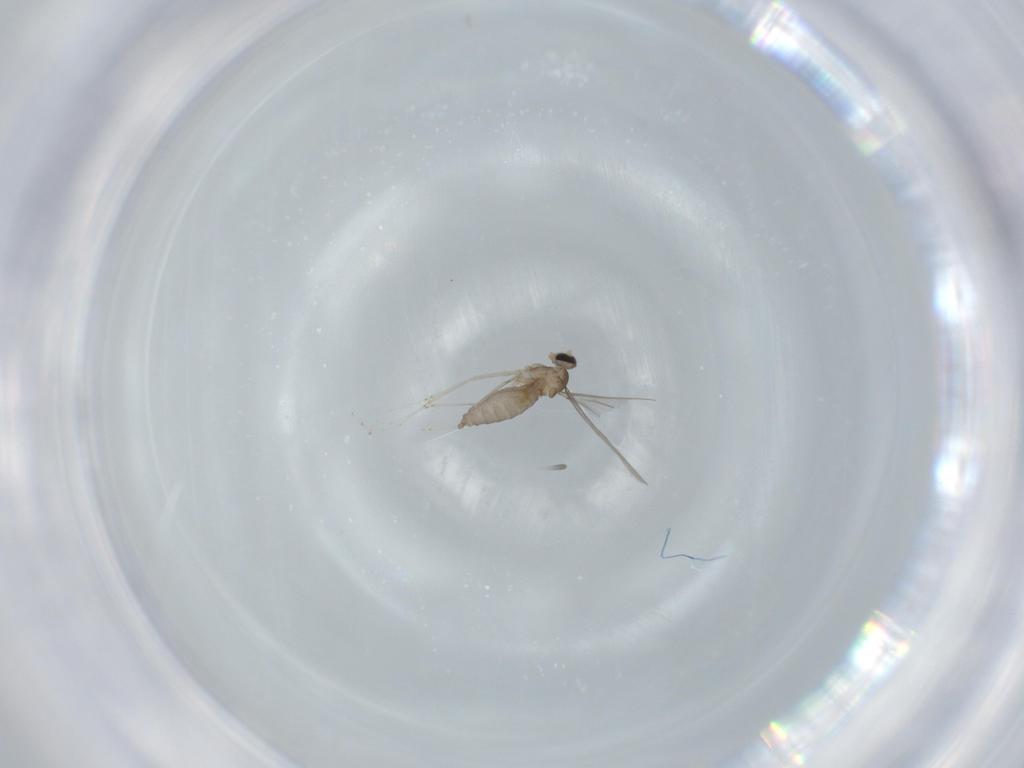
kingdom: Animalia
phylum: Arthropoda
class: Insecta
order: Diptera
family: Cecidomyiidae
